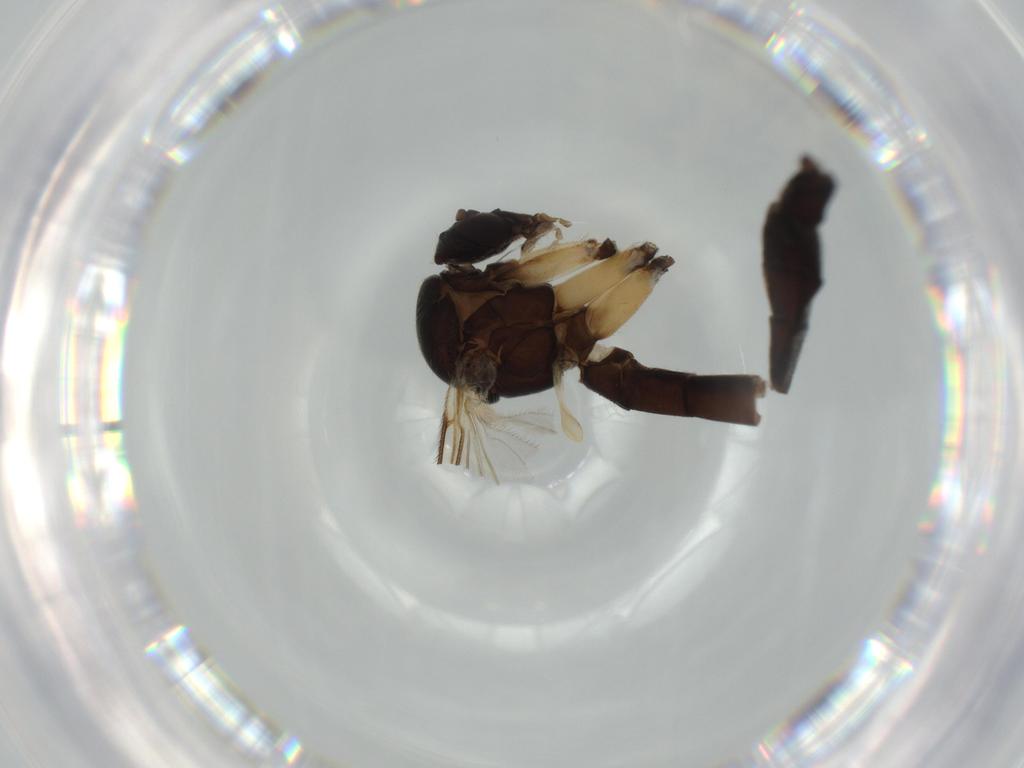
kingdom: Animalia
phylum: Arthropoda
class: Insecta
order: Diptera
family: Mycetophilidae
